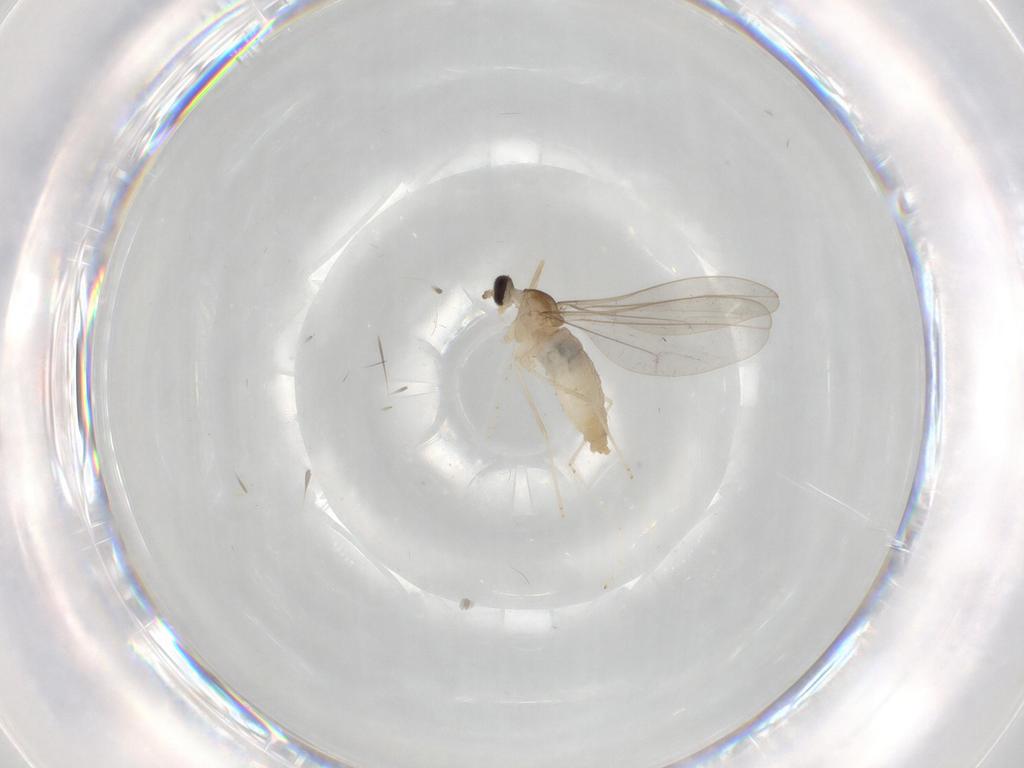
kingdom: Animalia
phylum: Arthropoda
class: Insecta
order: Diptera
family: Cecidomyiidae
